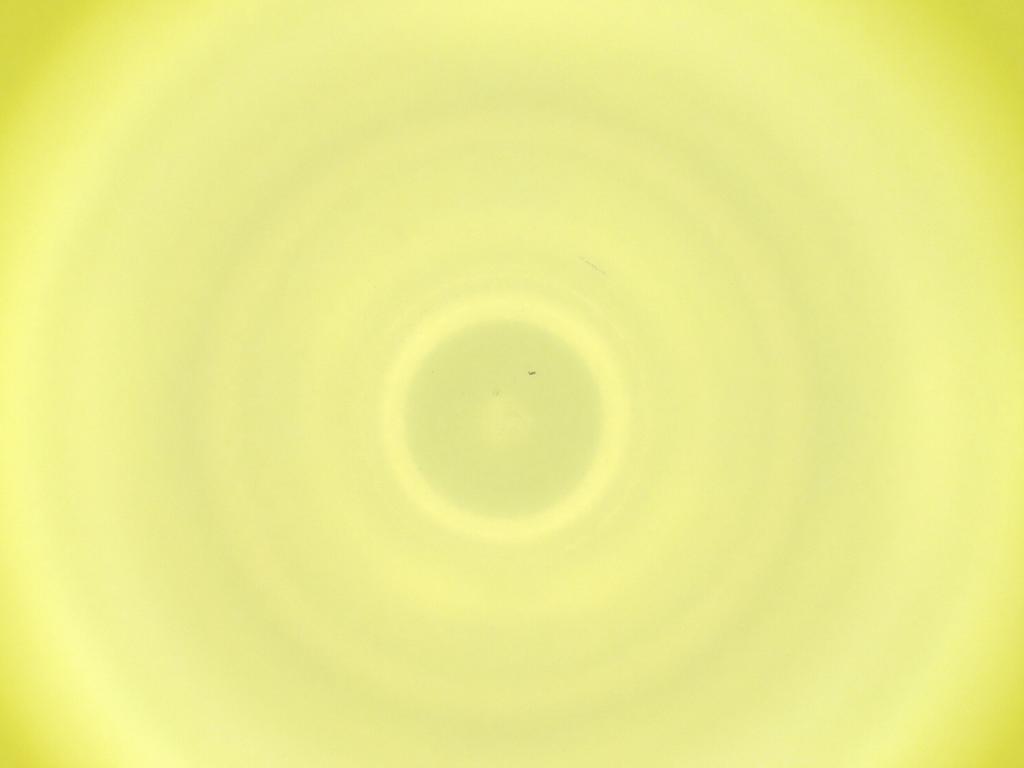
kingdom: Animalia
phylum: Arthropoda
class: Insecta
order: Diptera
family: Cecidomyiidae
